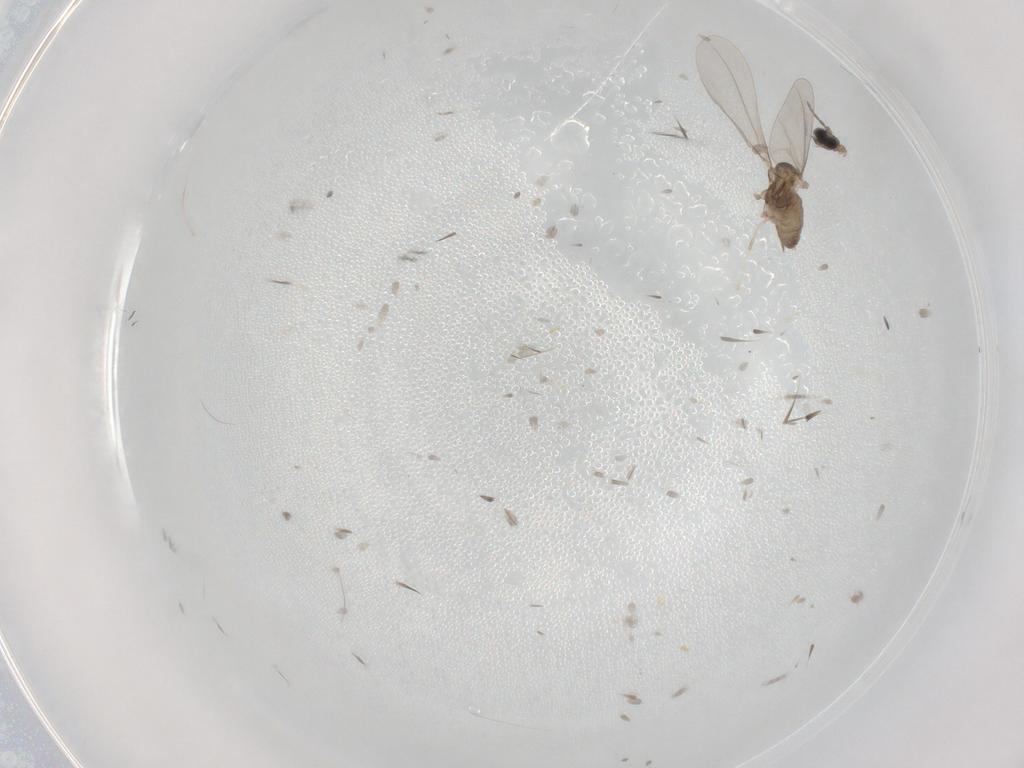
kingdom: Animalia
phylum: Arthropoda
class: Insecta
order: Diptera
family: Cecidomyiidae
